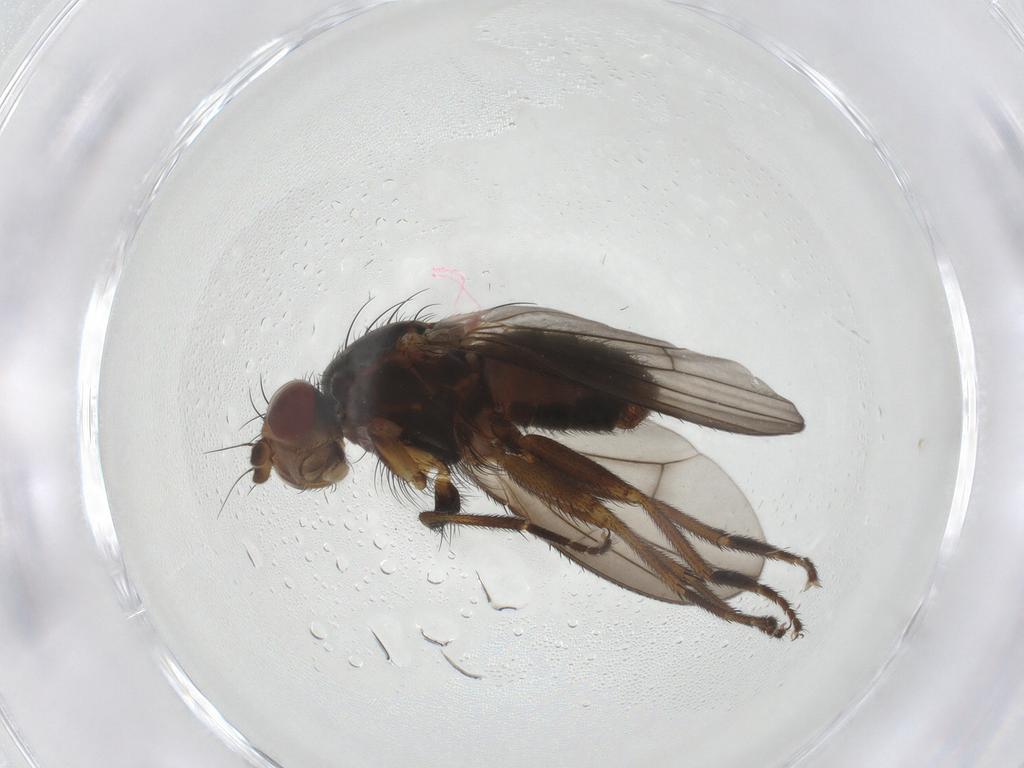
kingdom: Animalia
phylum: Arthropoda
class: Insecta
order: Diptera
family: Heleomyzidae
